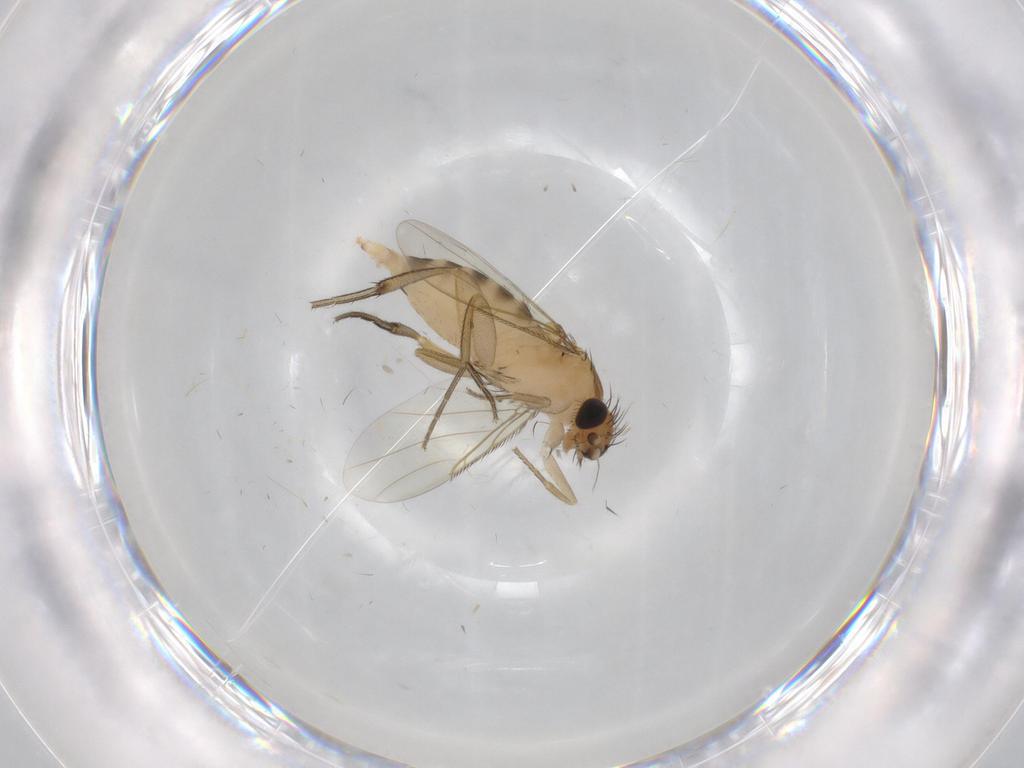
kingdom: Animalia
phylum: Arthropoda
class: Insecta
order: Diptera
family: Phoridae
